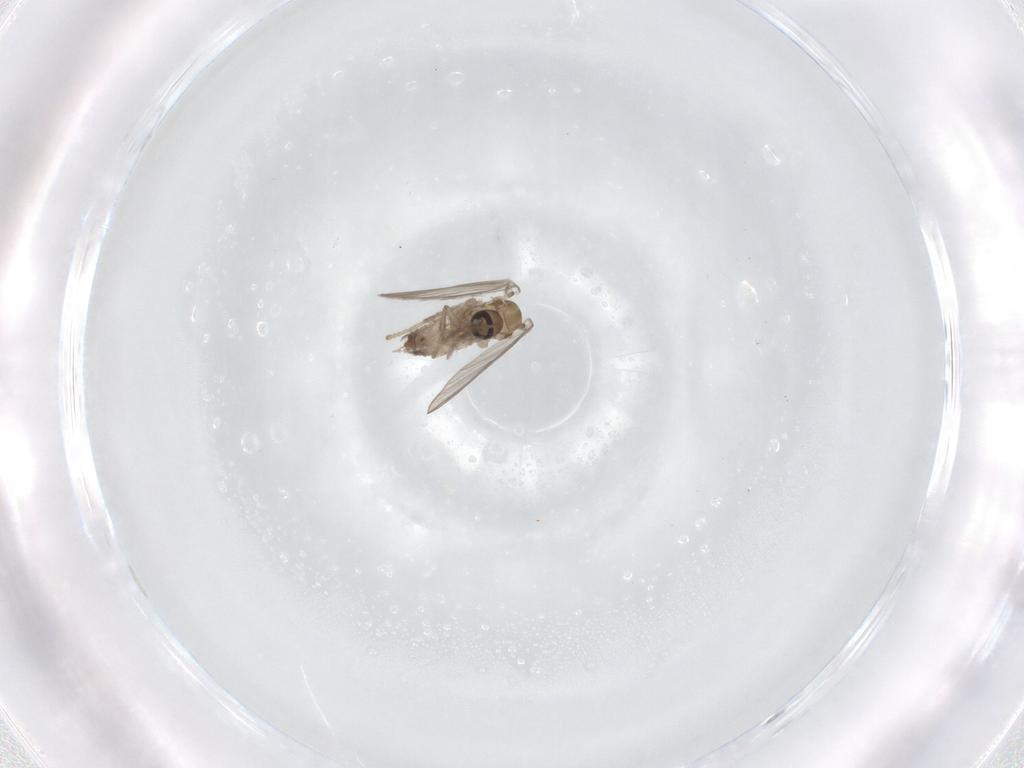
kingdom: Animalia
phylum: Arthropoda
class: Insecta
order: Diptera
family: Psychodidae
